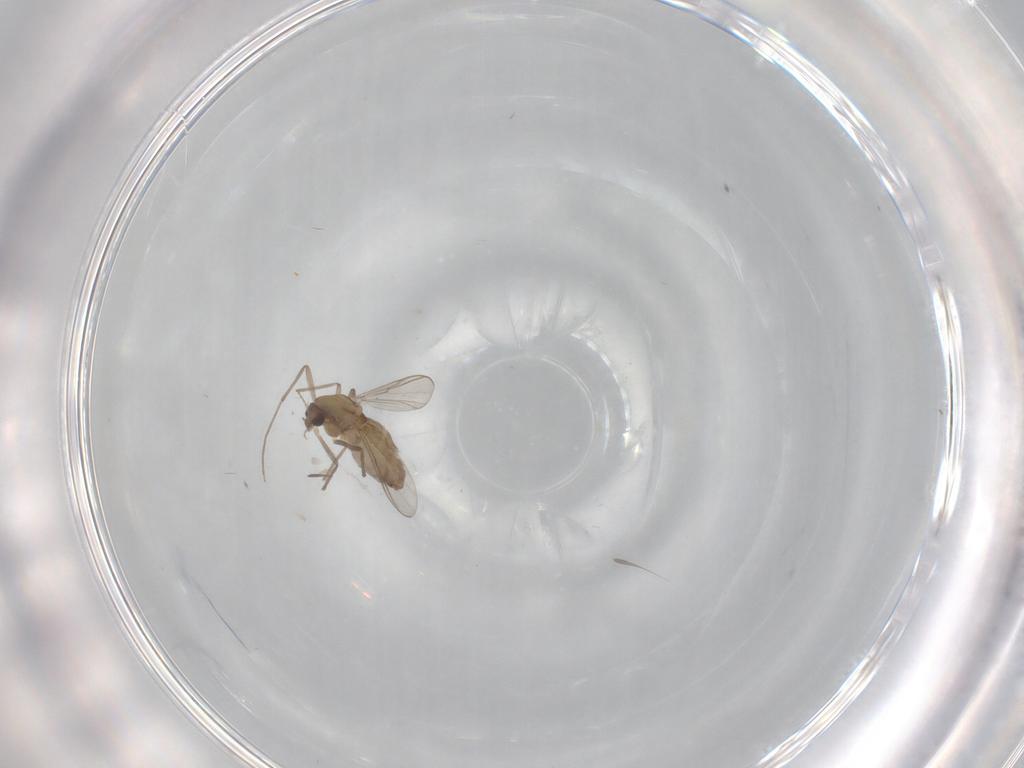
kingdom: Animalia
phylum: Arthropoda
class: Insecta
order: Diptera
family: Chironomidae
